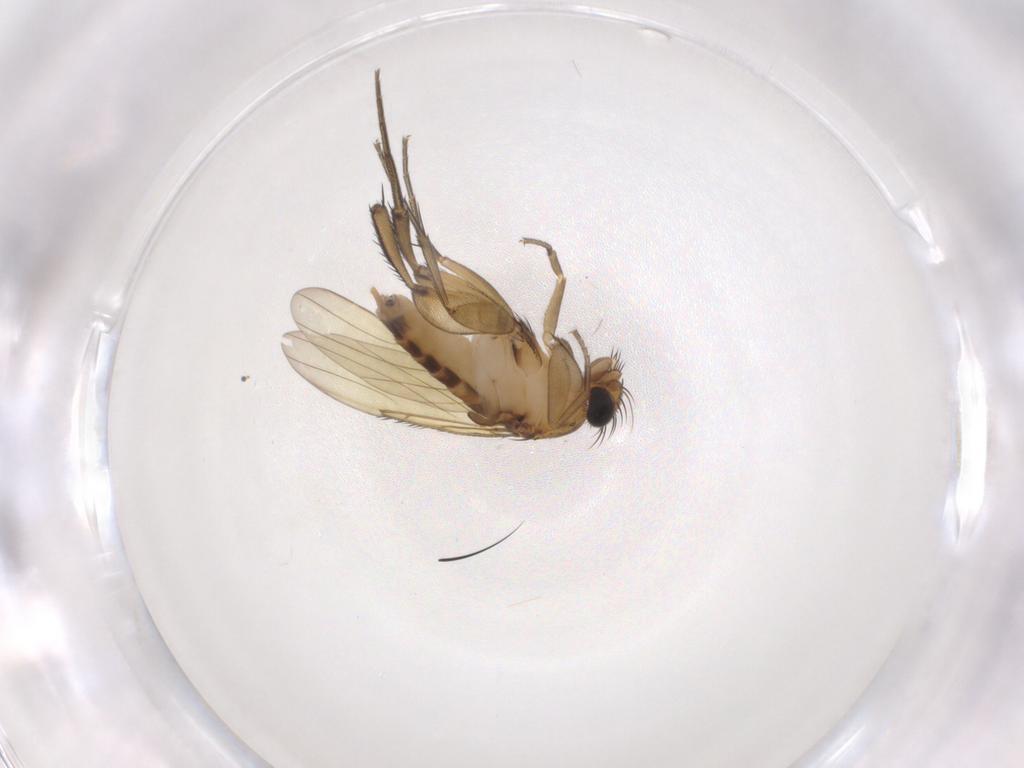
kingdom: Animalia
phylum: Arthropoda
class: Insecta
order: Diptera
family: Phoridae
